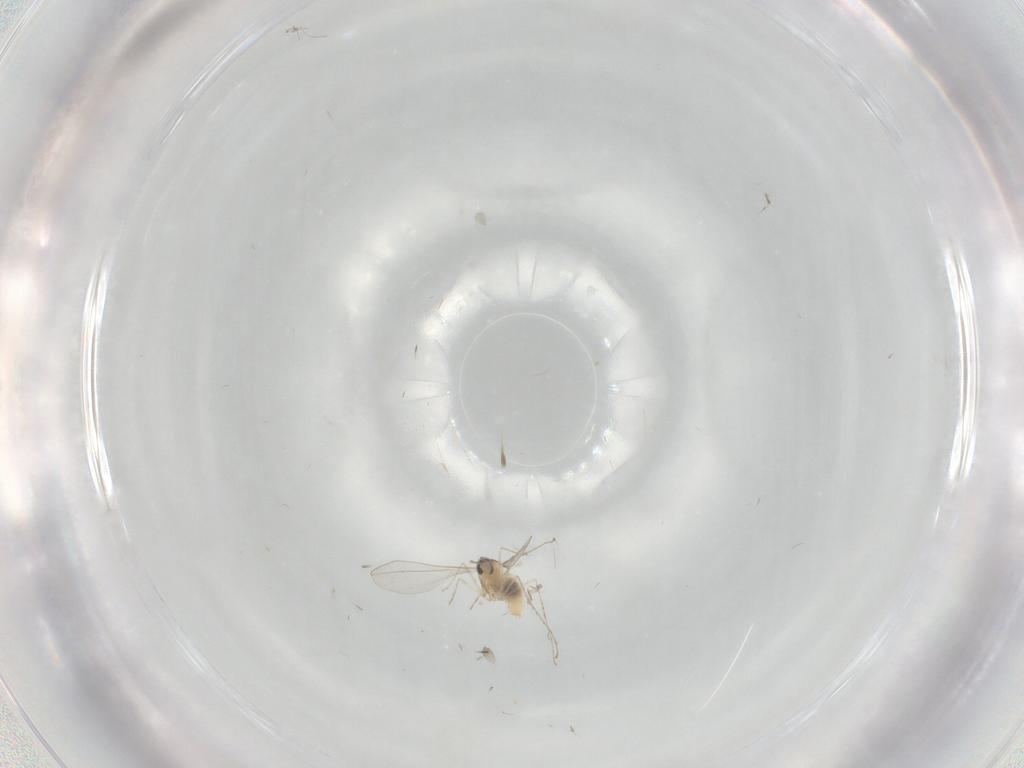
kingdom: Animalia
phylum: Arthropoda
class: Insecta
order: Diptera
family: Cecidomyiidae
